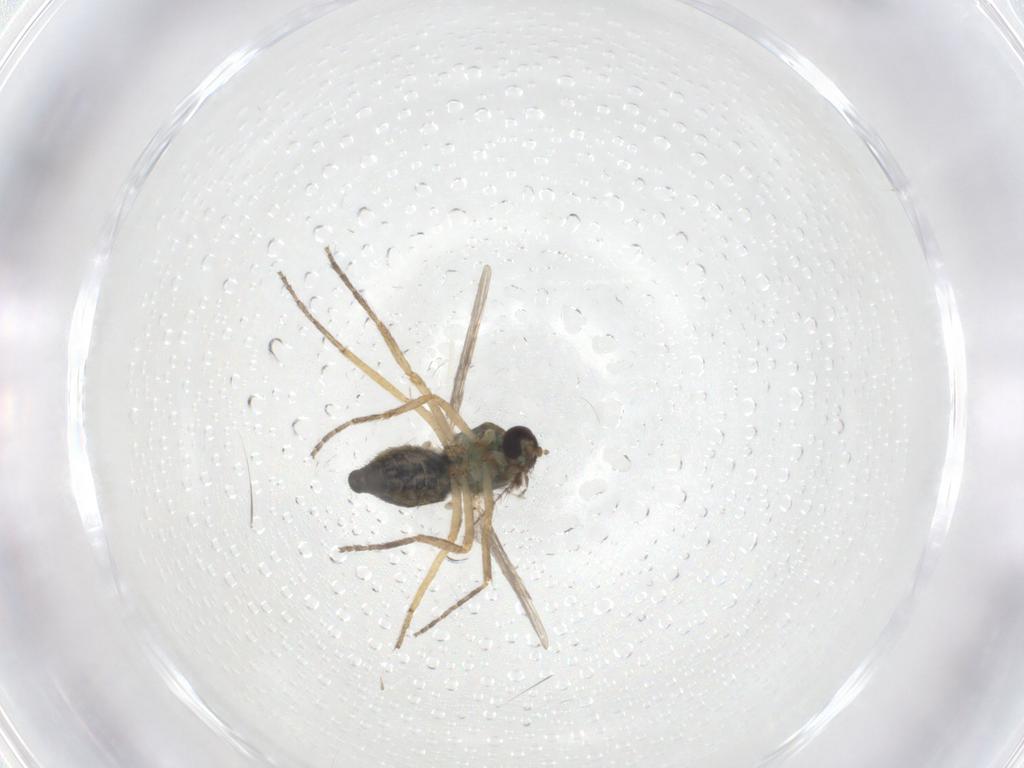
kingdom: Animalia
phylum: Arthropoda
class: Insecta
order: Diptera
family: Ceratopogonidae
